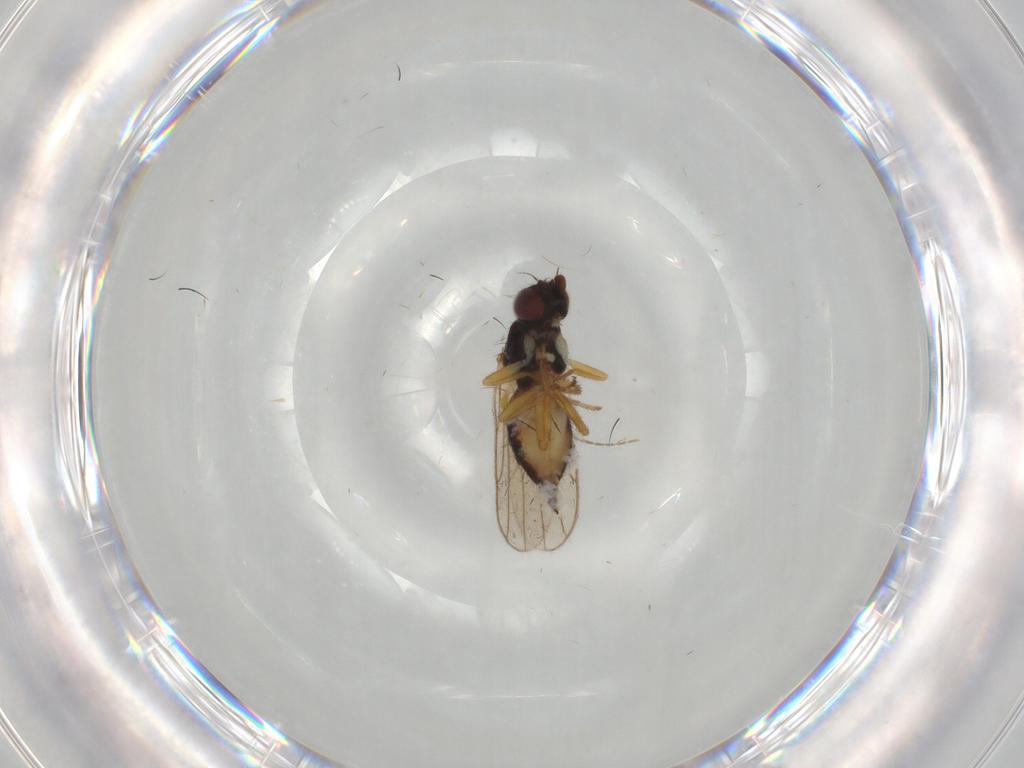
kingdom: Animalia
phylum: Arthropoda
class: Insecta
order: Diptera
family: Chloropidae
